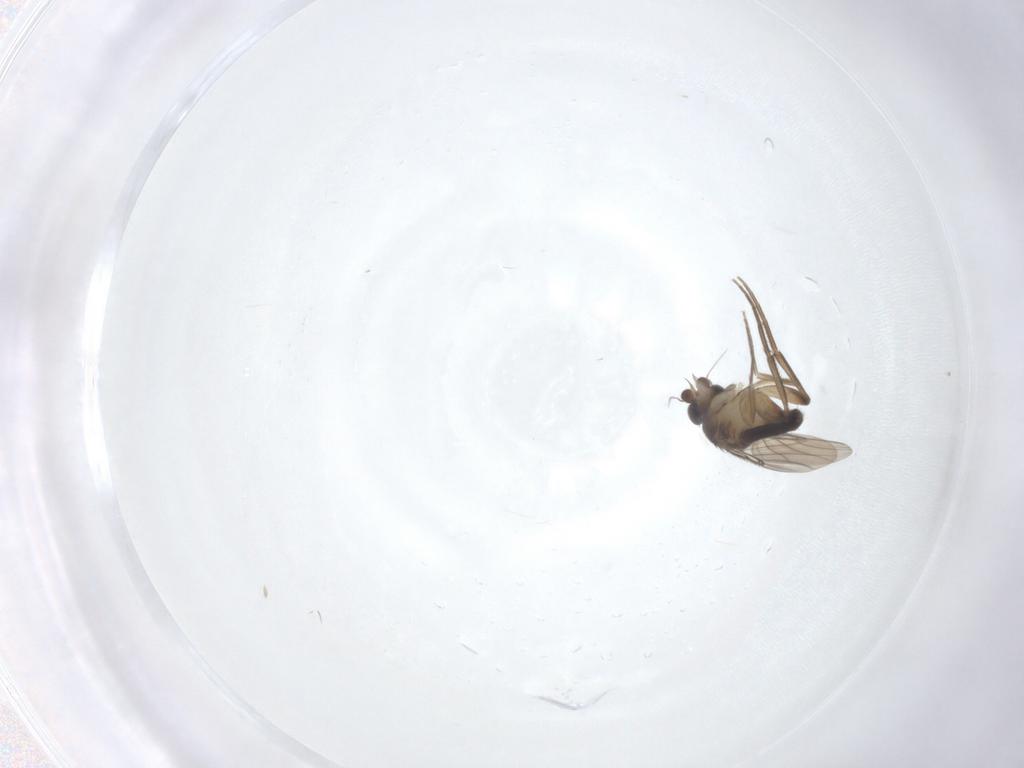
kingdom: Animalia
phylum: Arthropoda
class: Insecta
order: Diptera
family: Phoridae
